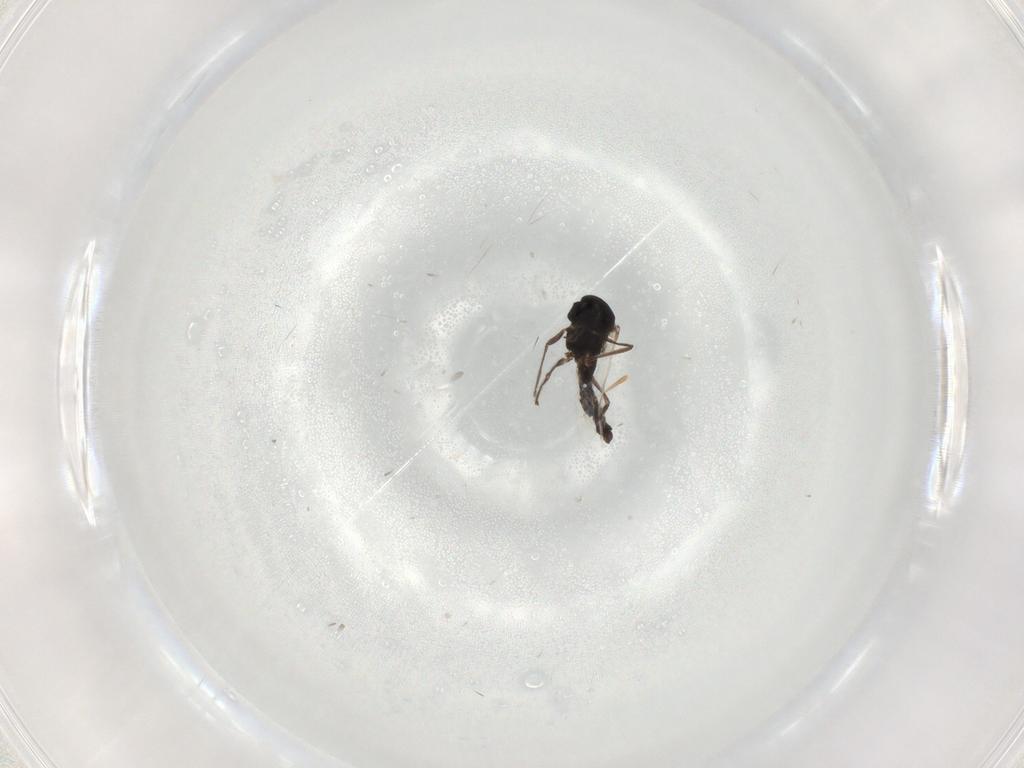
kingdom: Animalia
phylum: Arthropoda
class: Insecta
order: Diptera
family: Chironomidae
